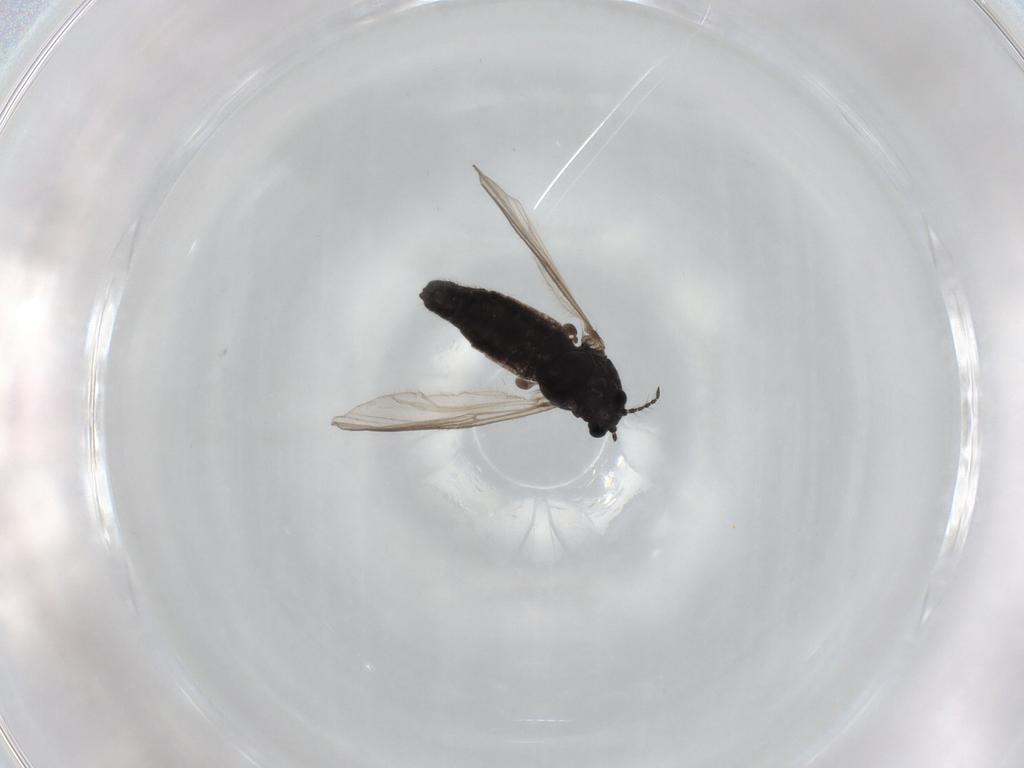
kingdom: Animalia
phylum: Arthropoda
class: Insecta
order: Diptera
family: Chironomidae
